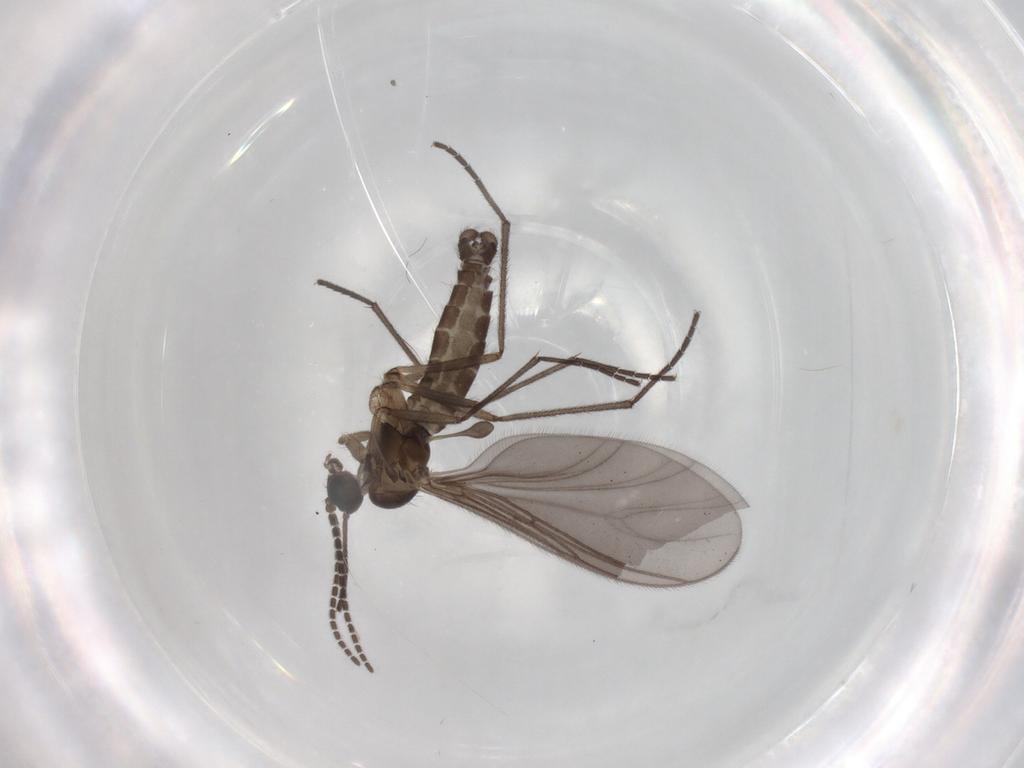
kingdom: Animalia
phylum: Arthropoda
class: Insecta
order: Diptera
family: Sciaridae
